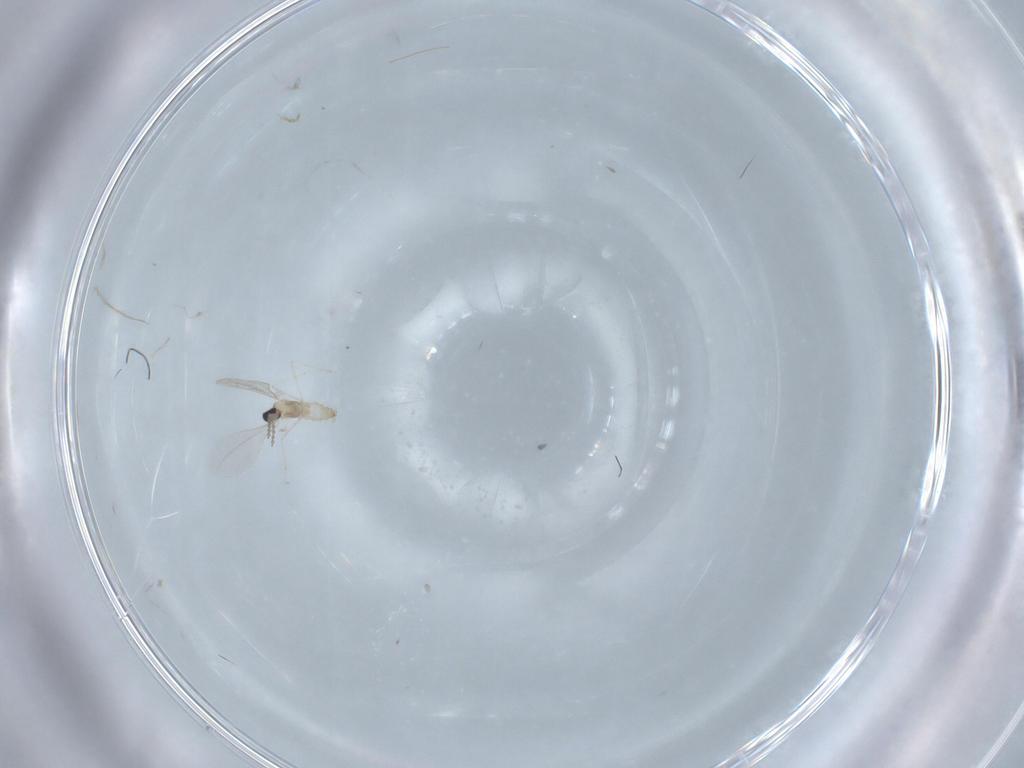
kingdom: Animalia
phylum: Arthropoda
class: Insecta
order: Diptera
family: Cecidomyiidae
